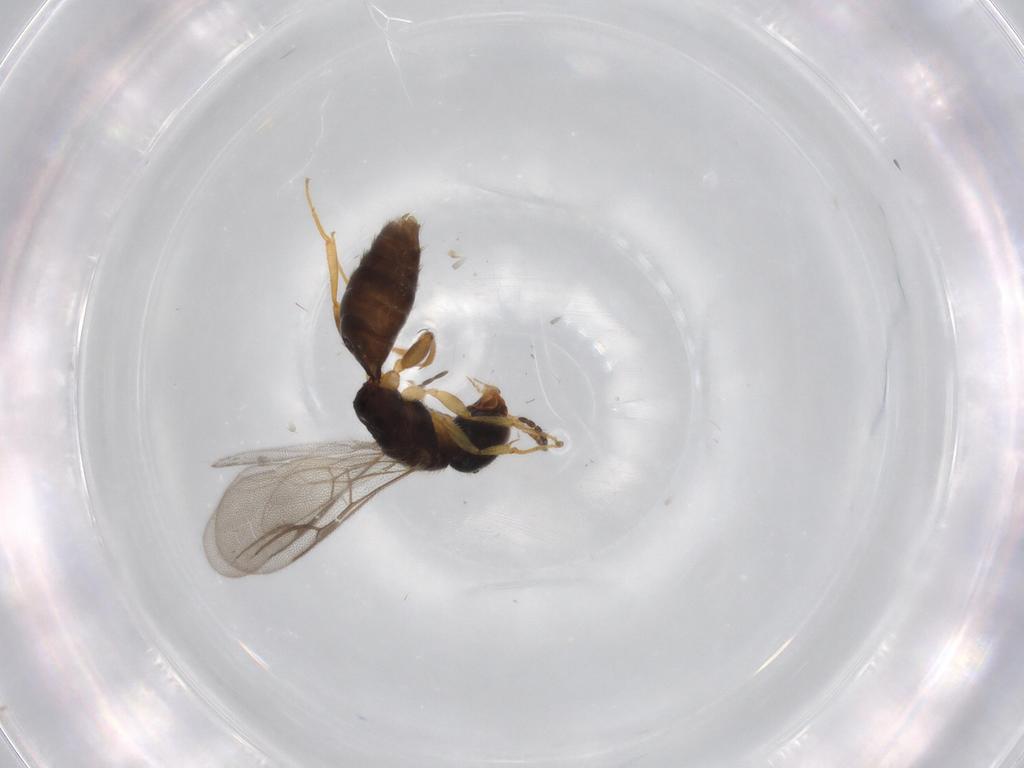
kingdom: Animalia
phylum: Arthropoda
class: Insecta
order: Hymenoptera
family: Bethylidae
